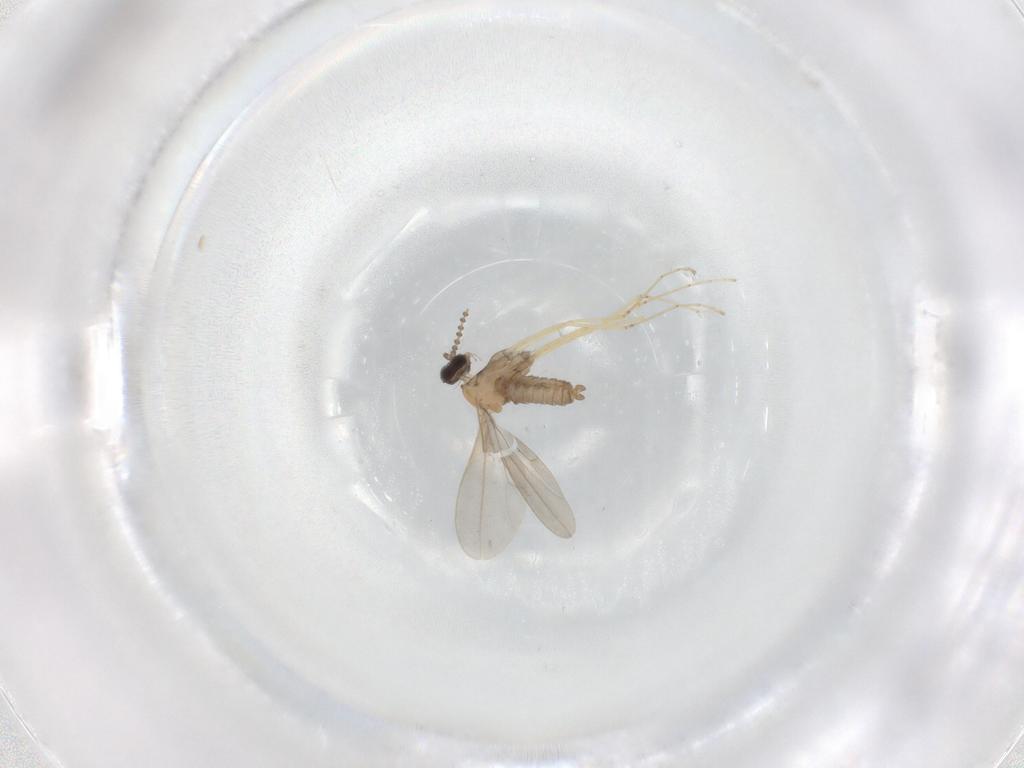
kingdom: Animalia
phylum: Arthropoda
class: Insecta
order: Diptera
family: Cecidomyiidae
